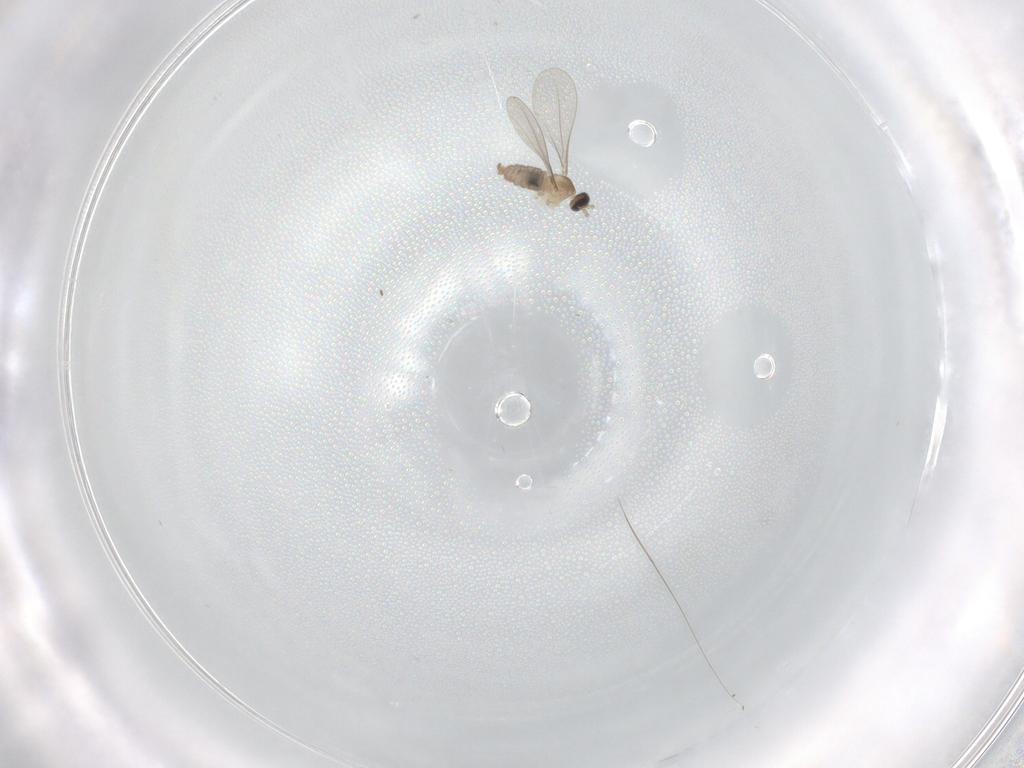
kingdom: Animalia
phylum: Arthropoda
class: Insecta
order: Diptera
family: Cecidomyiidae
